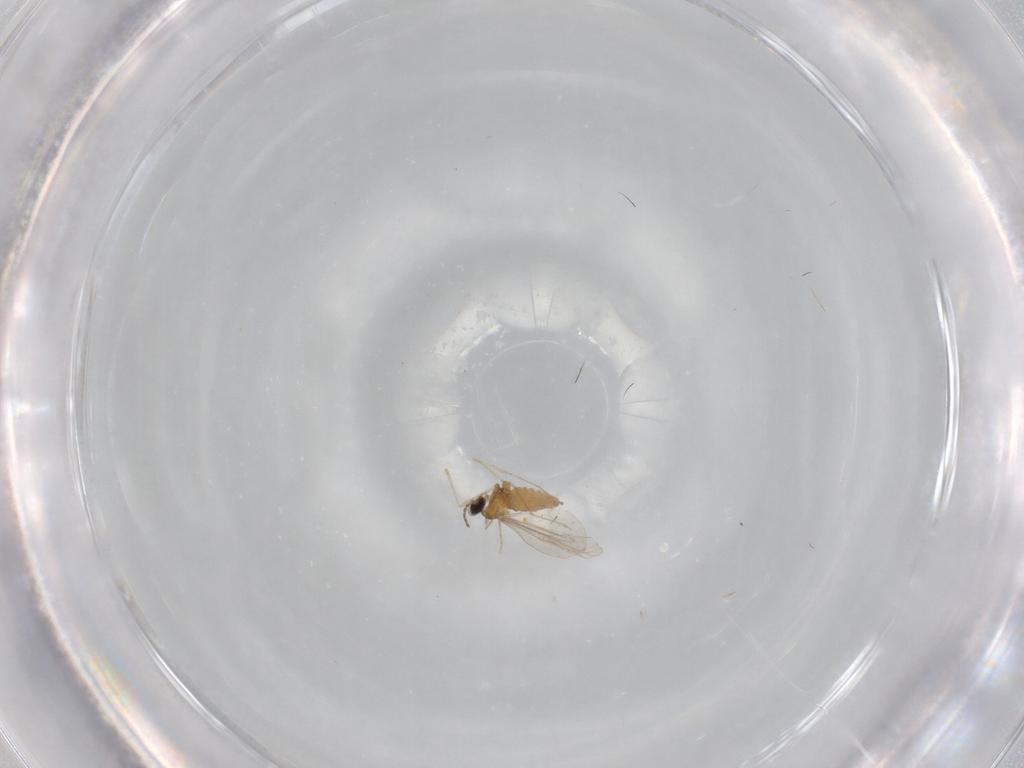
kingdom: Animalia
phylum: Arthropoda
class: Insecta
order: Diptera
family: Cecidomyiidae
